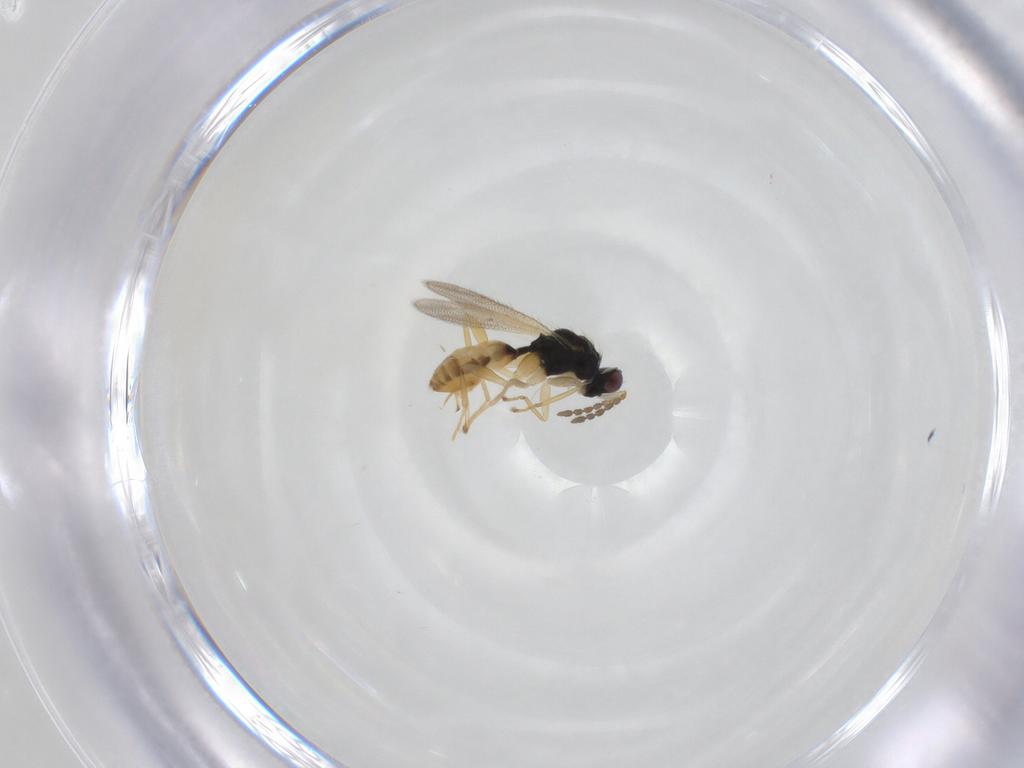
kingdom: Animalia
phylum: Arthropoda
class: Insecta
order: Hymenoptera
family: Eulophidae
